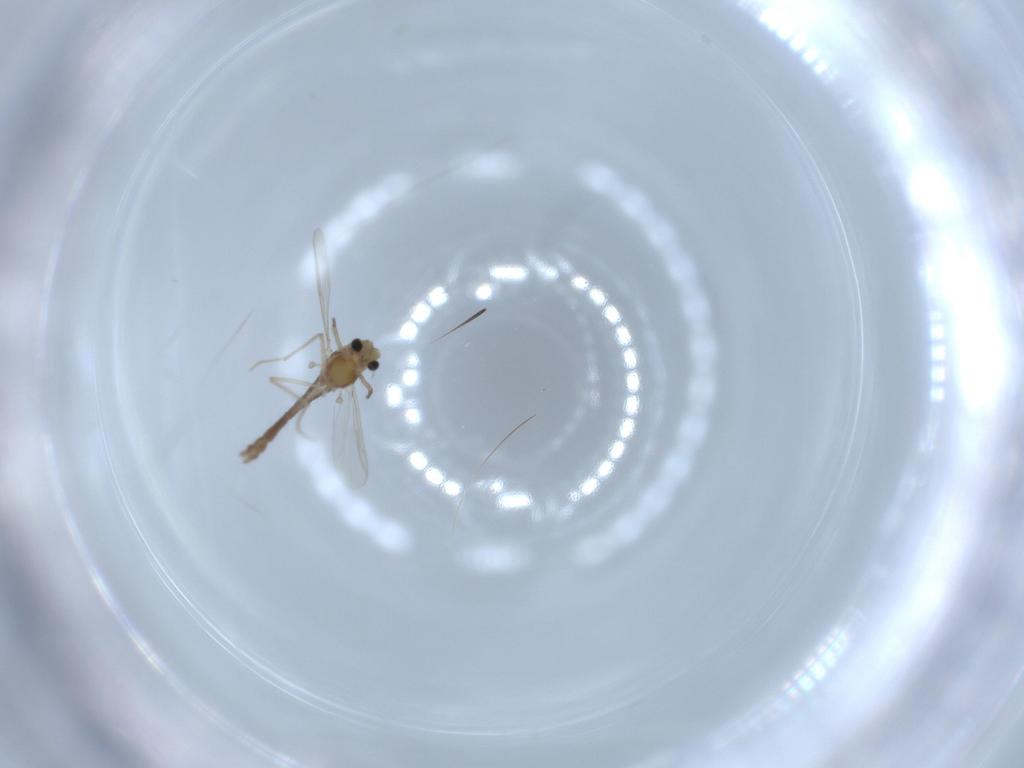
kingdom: Animalia
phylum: Arthropoda
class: Insecta
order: Diptera
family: Chironomidae
